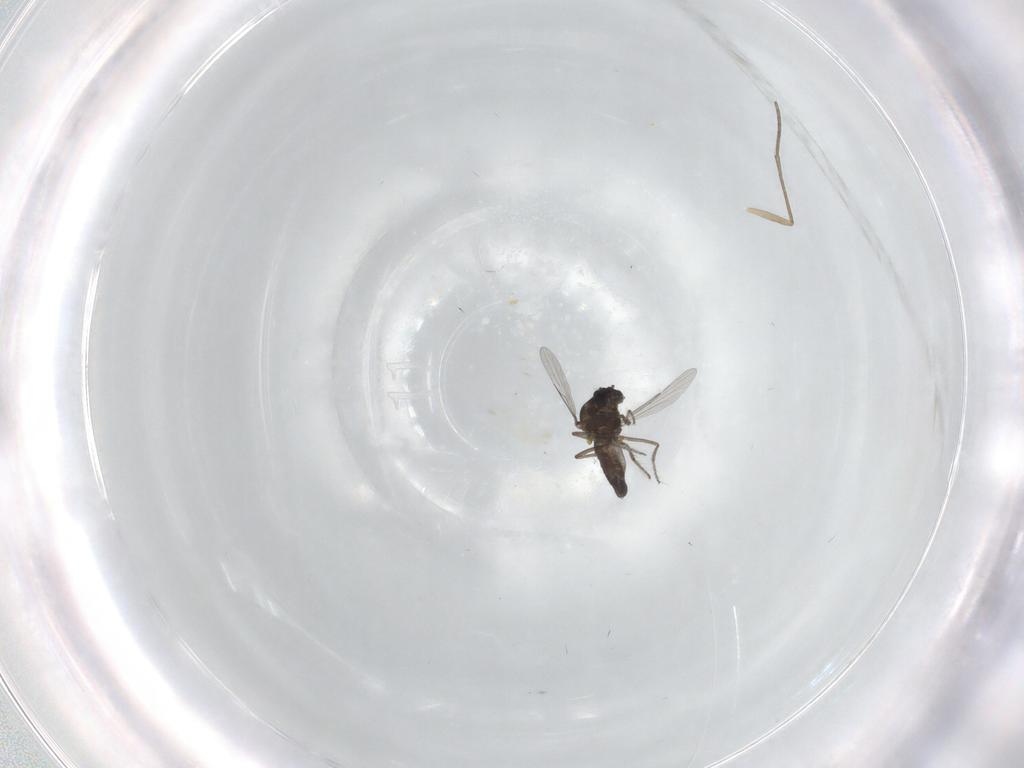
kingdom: Animalia
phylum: Arthropoda
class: Insecta
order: Diptera
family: Ceratopogonidae
